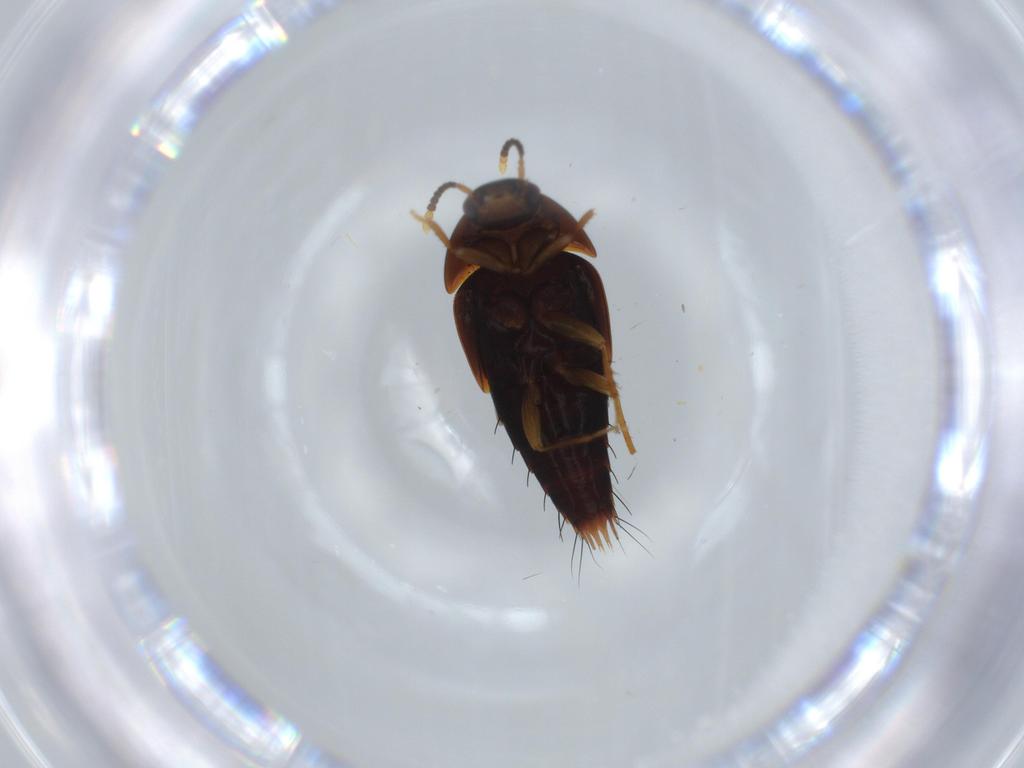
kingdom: Animalia
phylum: Arthropoda
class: Insecta
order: Coleoptera
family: Staphylinidae
